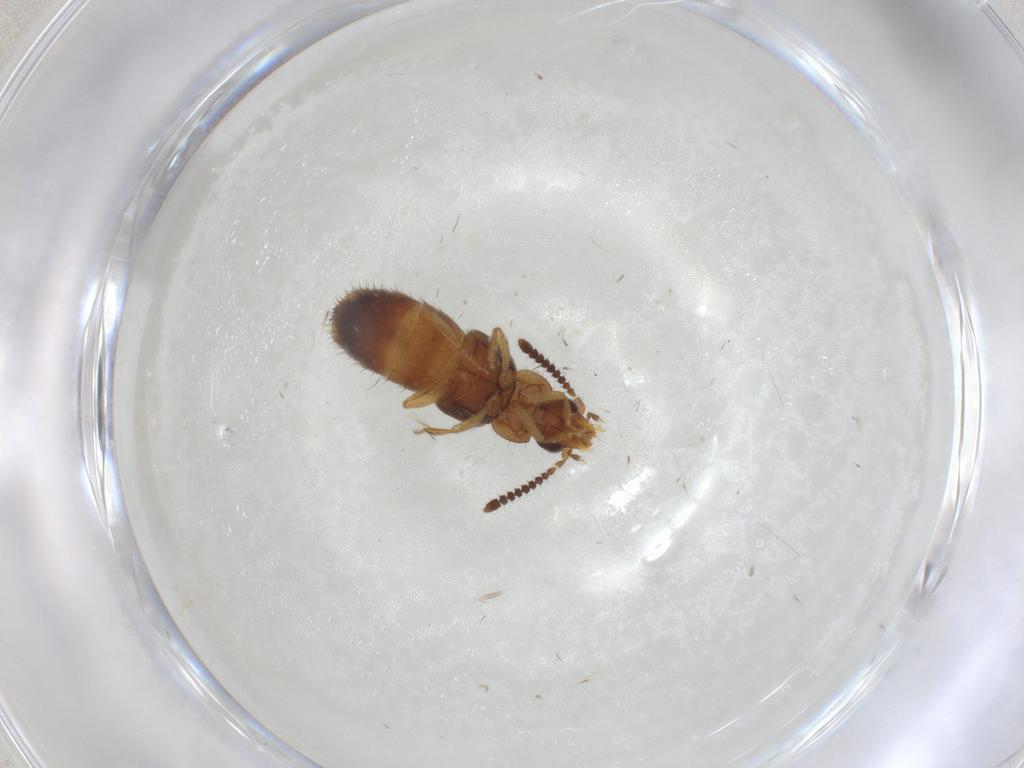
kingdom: Animalia
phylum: Arthropoda
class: Insecta
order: Coleoptera
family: Staphylinidae
